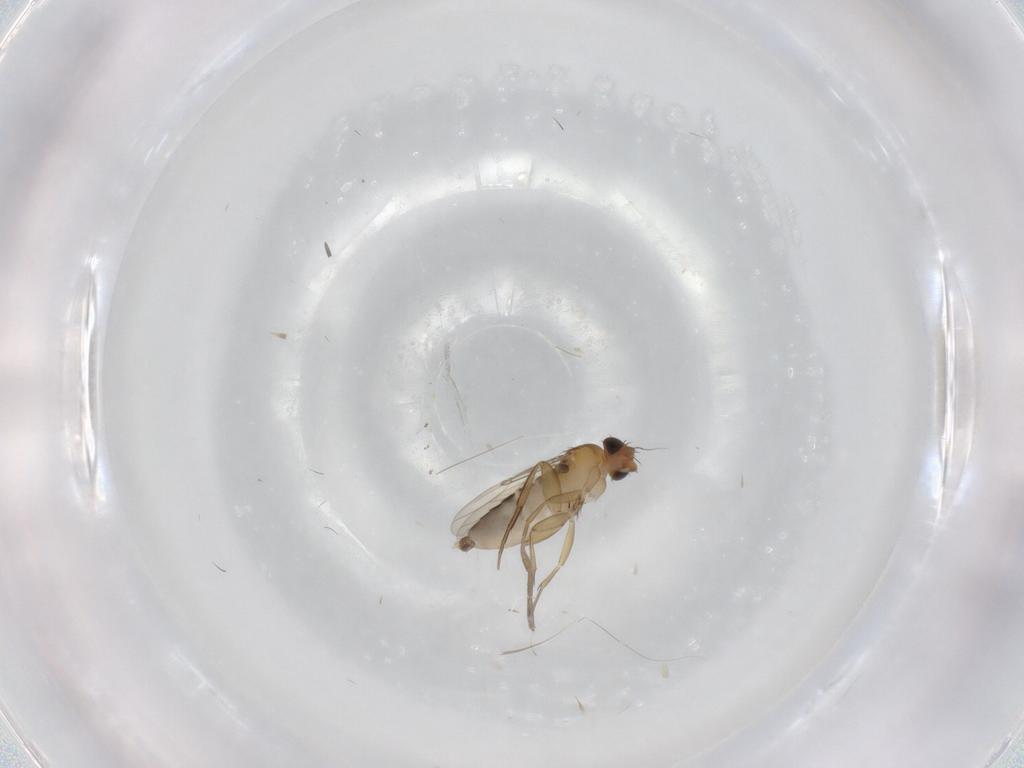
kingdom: Animalia
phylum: Arthropoda
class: Insecta
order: Diptera
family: Phoridae
